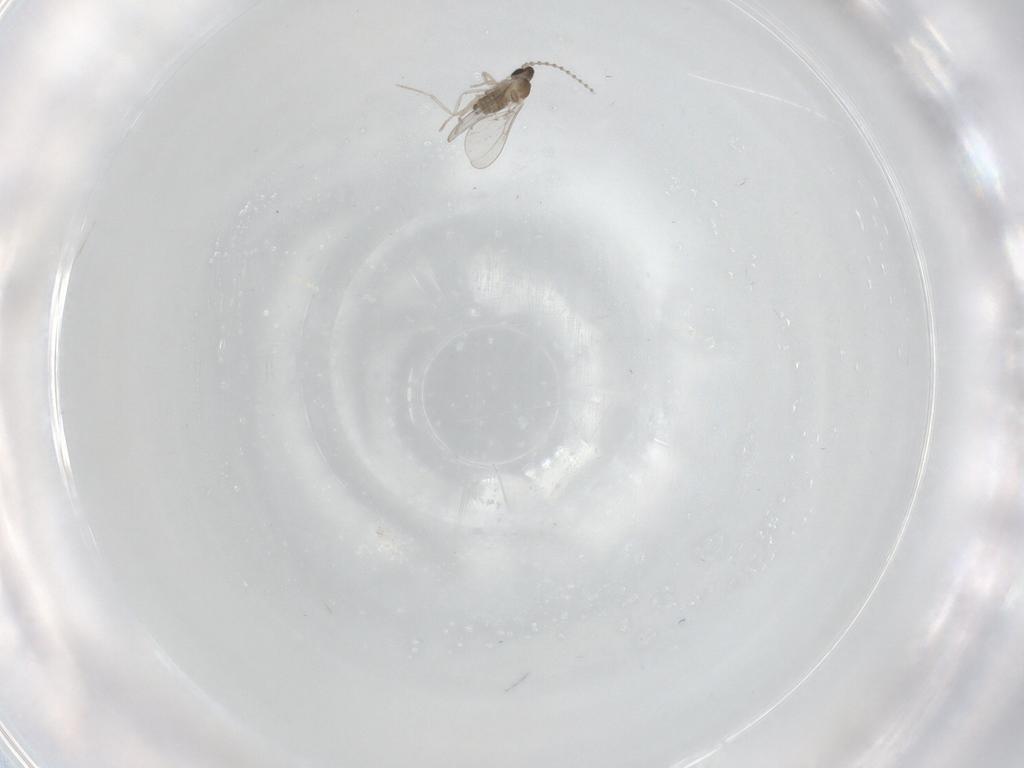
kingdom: Animalia
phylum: Arthropoda
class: Insecta
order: Diptera
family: Cecidomyiidae
